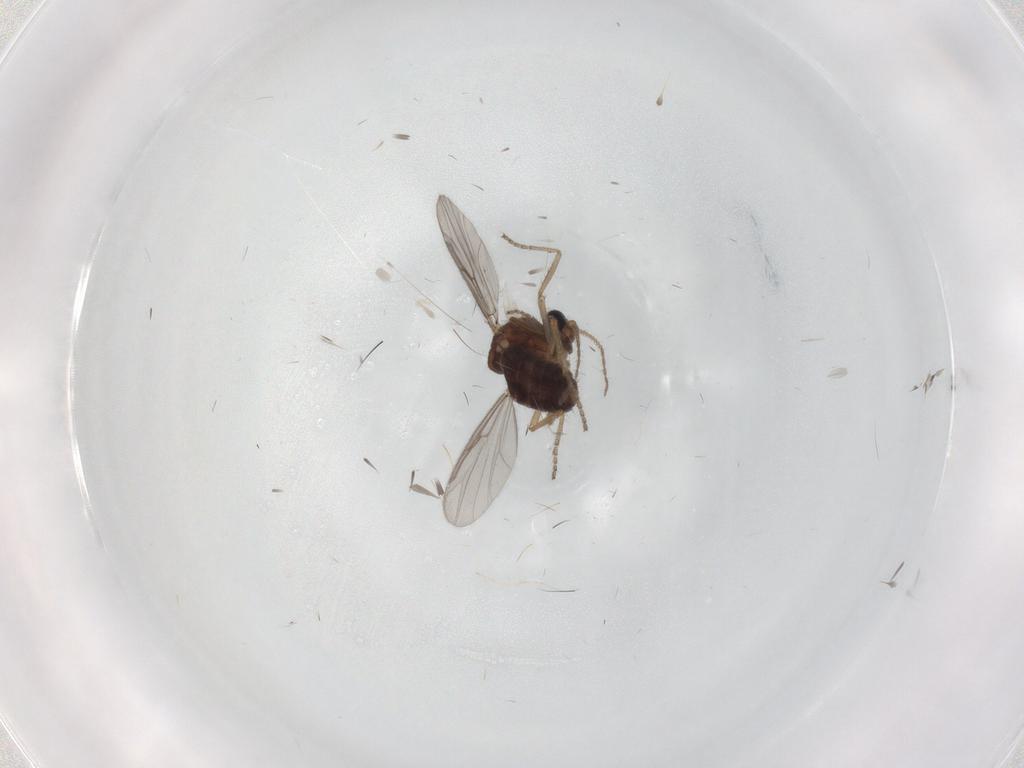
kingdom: Animalia
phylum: Arthropoda
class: Insecta
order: Diptera
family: Ceratopogonidae
